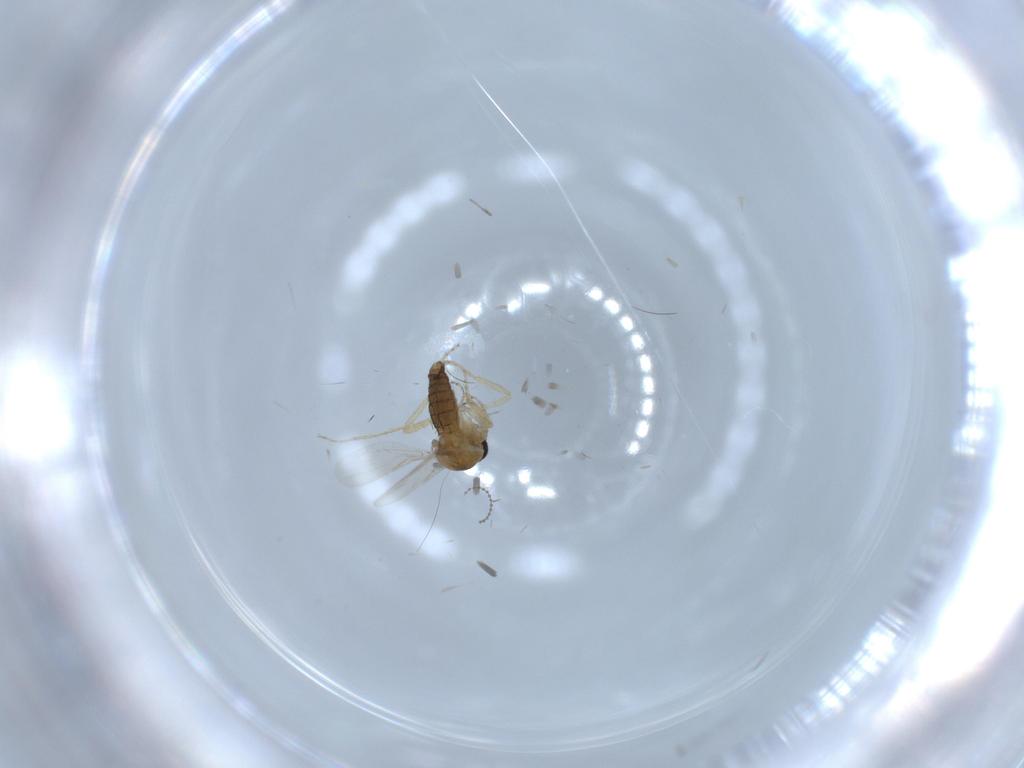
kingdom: Animalia
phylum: Arthropoda
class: Insecta
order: Diptera
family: Ceratopogonidae
